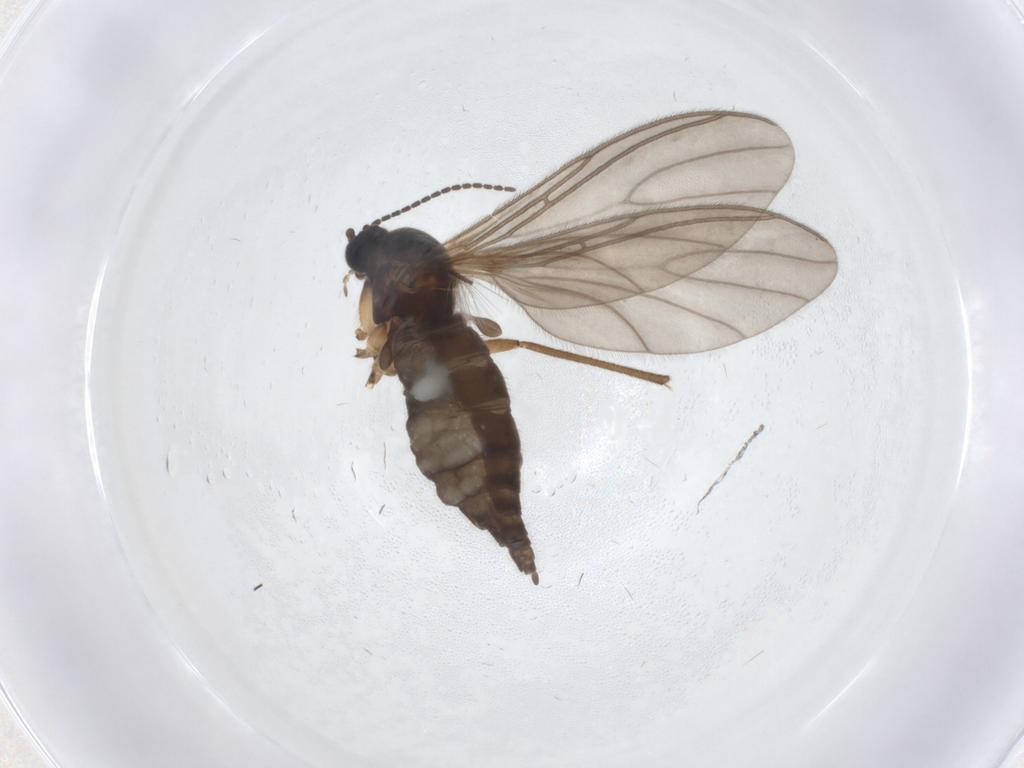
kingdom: Animalia
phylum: Arthropoda
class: Insecta
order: Diptera
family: Sciaridae
